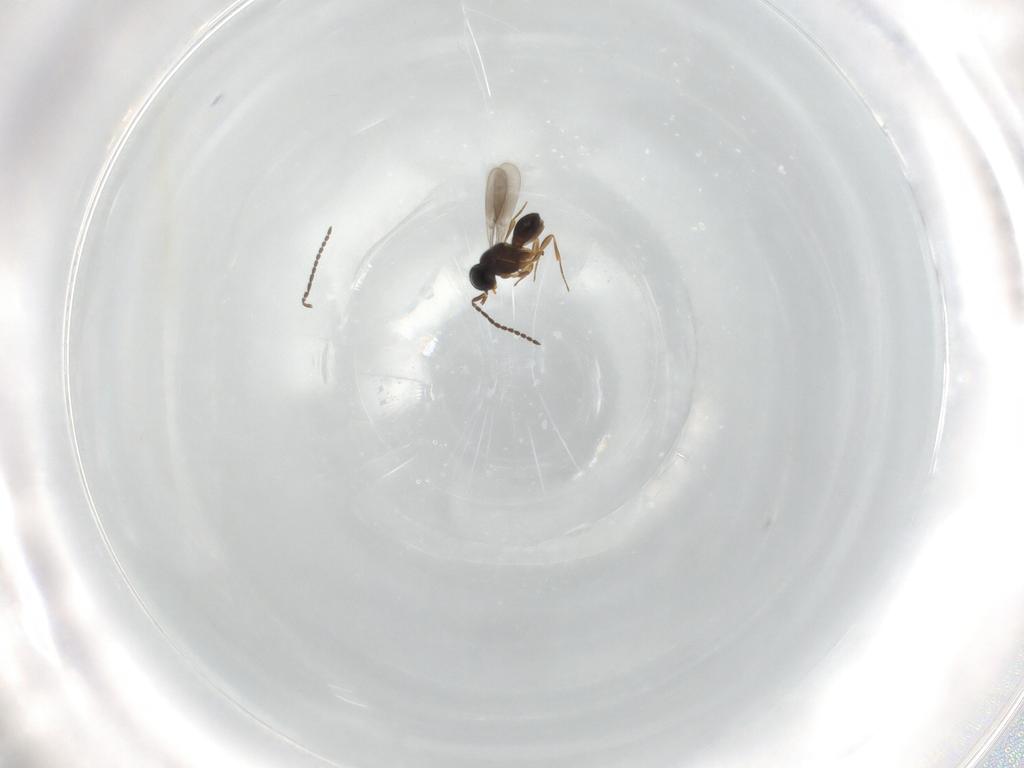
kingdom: Animalia
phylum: Arthropoda
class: Insecta
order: Hymenoptera
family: Scelionidae
